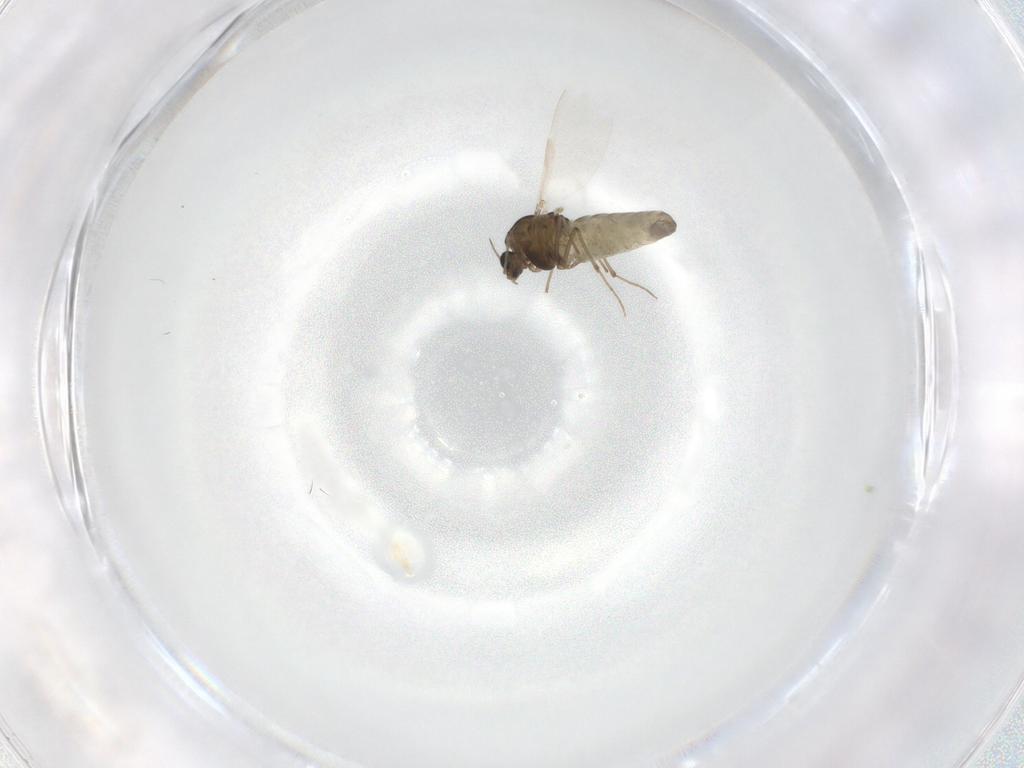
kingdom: Animalia
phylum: Arthropoda
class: Insecta
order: Diptera
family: Chironomidae
